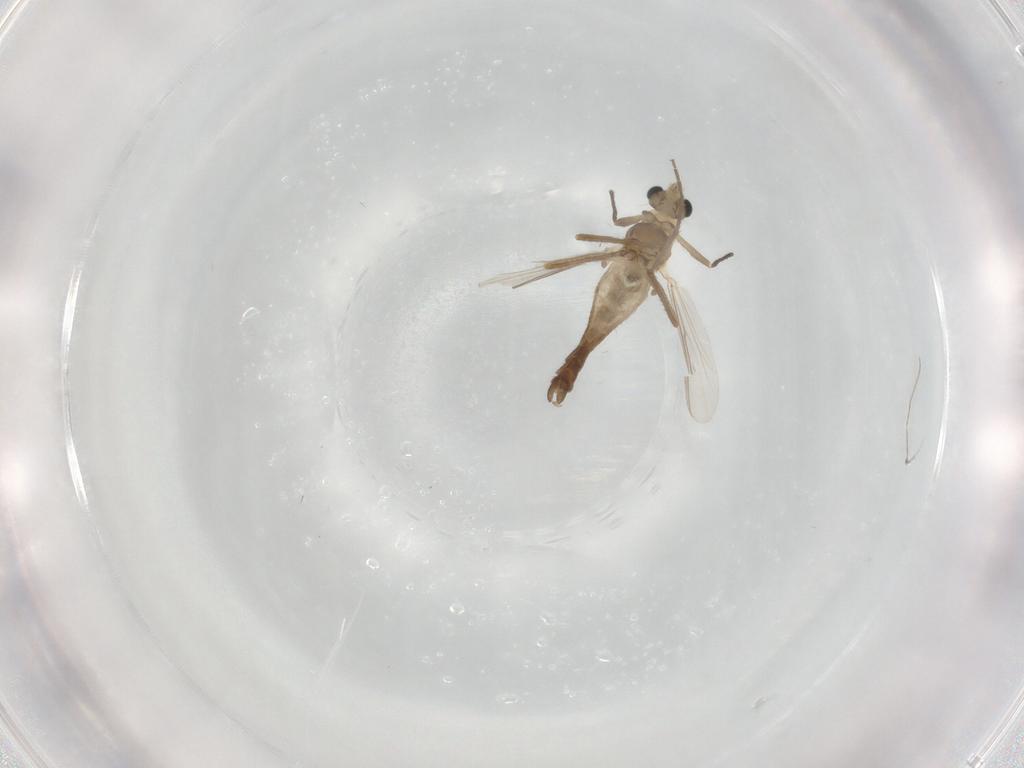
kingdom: Animalia
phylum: Arthropoda
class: Insecta
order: Diptera
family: Chironomidae
